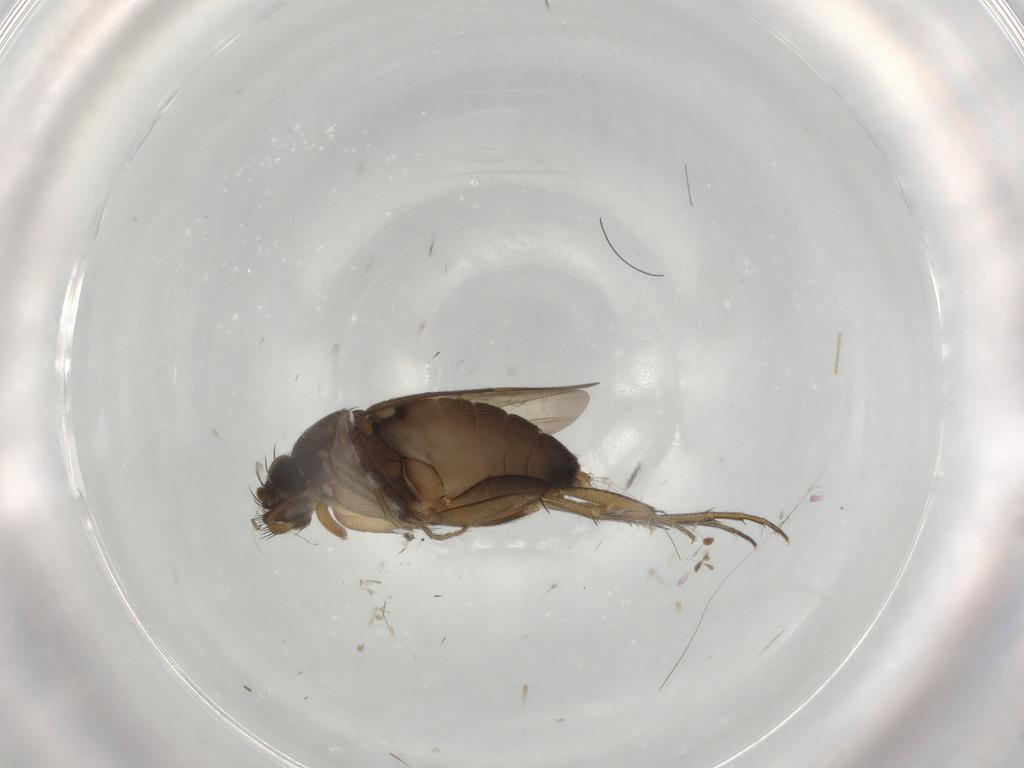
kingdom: Animalia
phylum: Arthropoda
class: Insecta
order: Diptera
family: Phoridae
